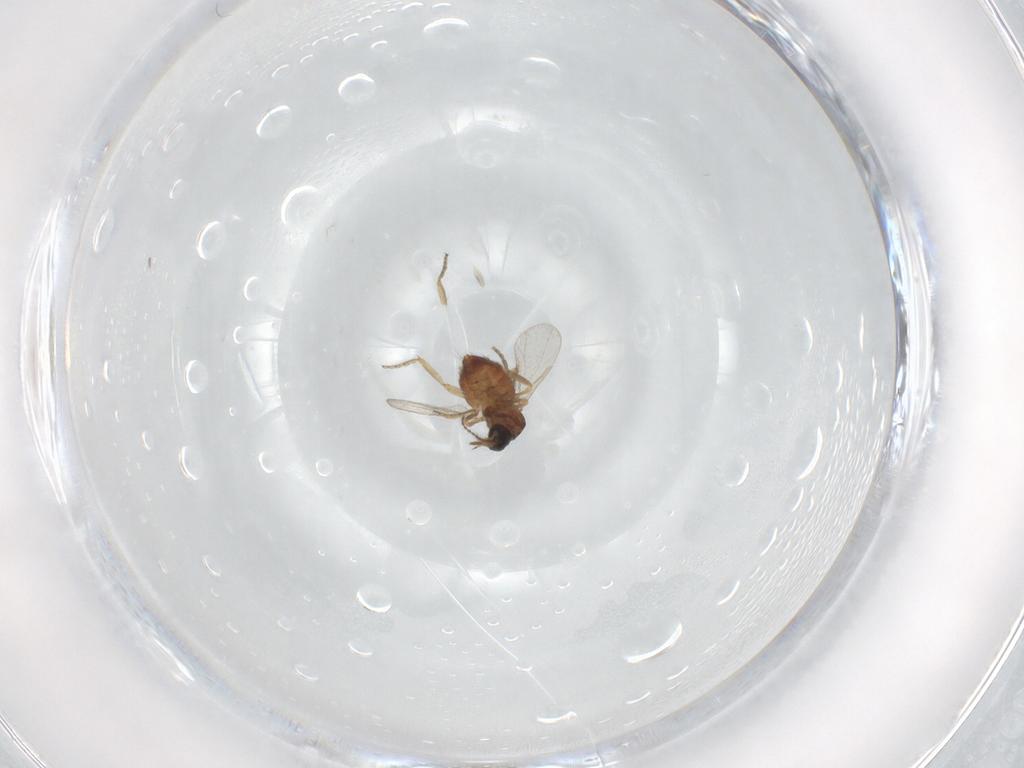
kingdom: Animalia
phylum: Arthropoda
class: Insecta
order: Diptera
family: Ceratopogonidae
